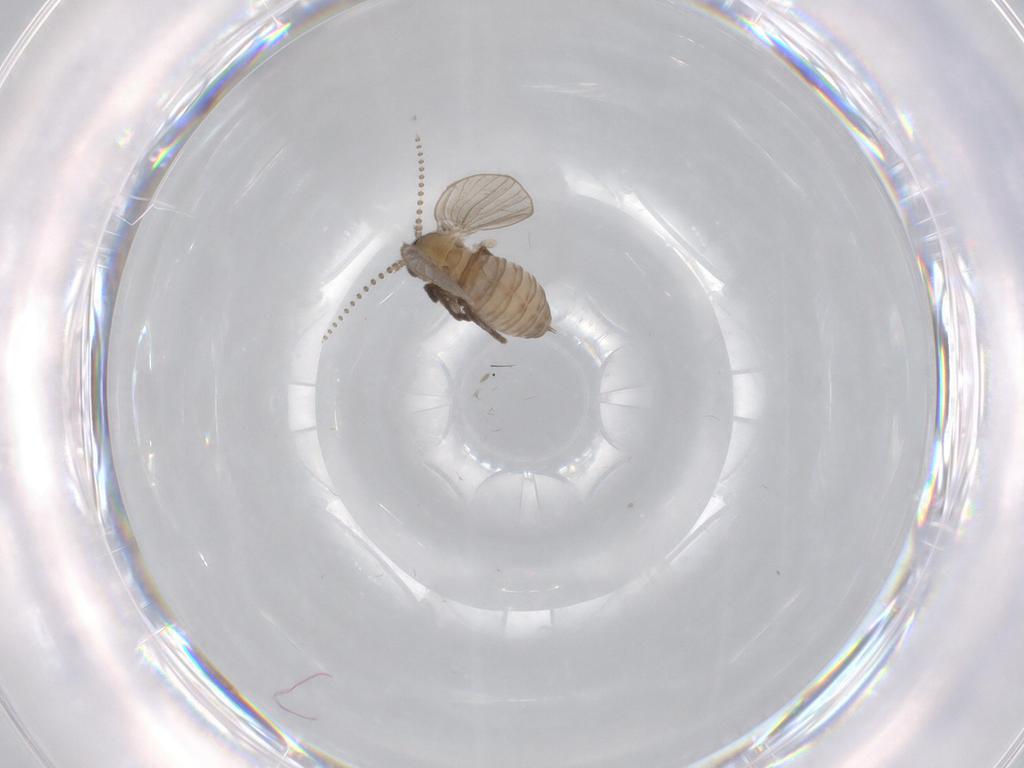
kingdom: Animalia
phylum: Arthropoda
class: Insecta
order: Diptera
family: Psychodidae
